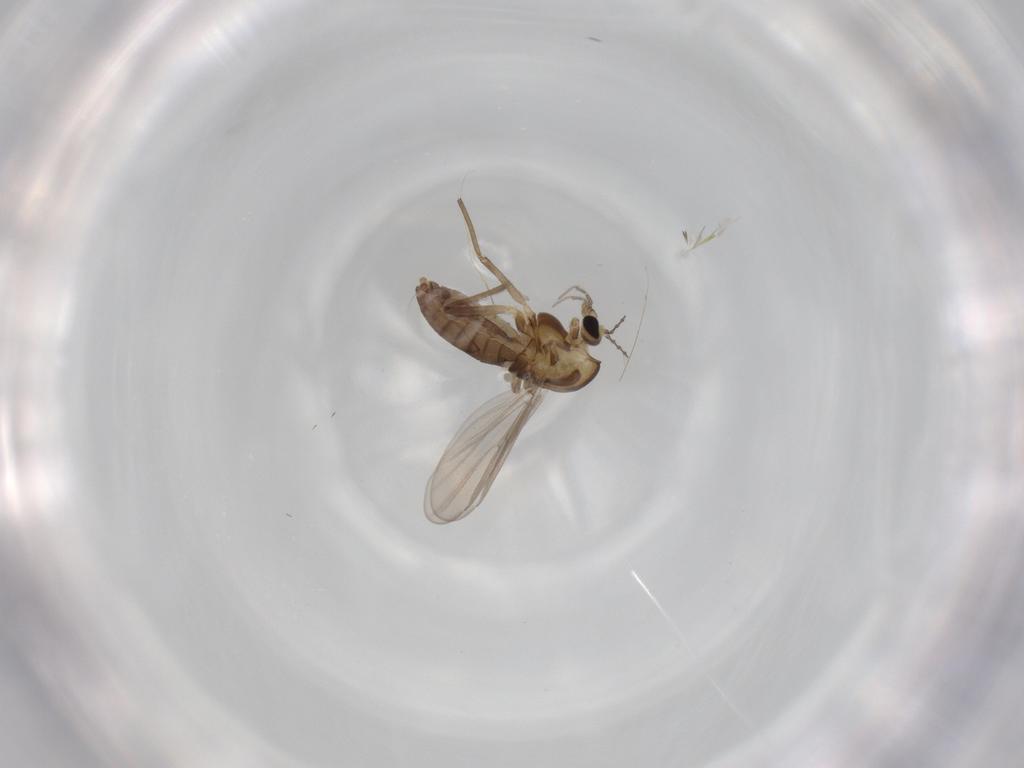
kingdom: Animalia
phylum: Arthropoda
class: Insecta
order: Diptera
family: Chironomidae
